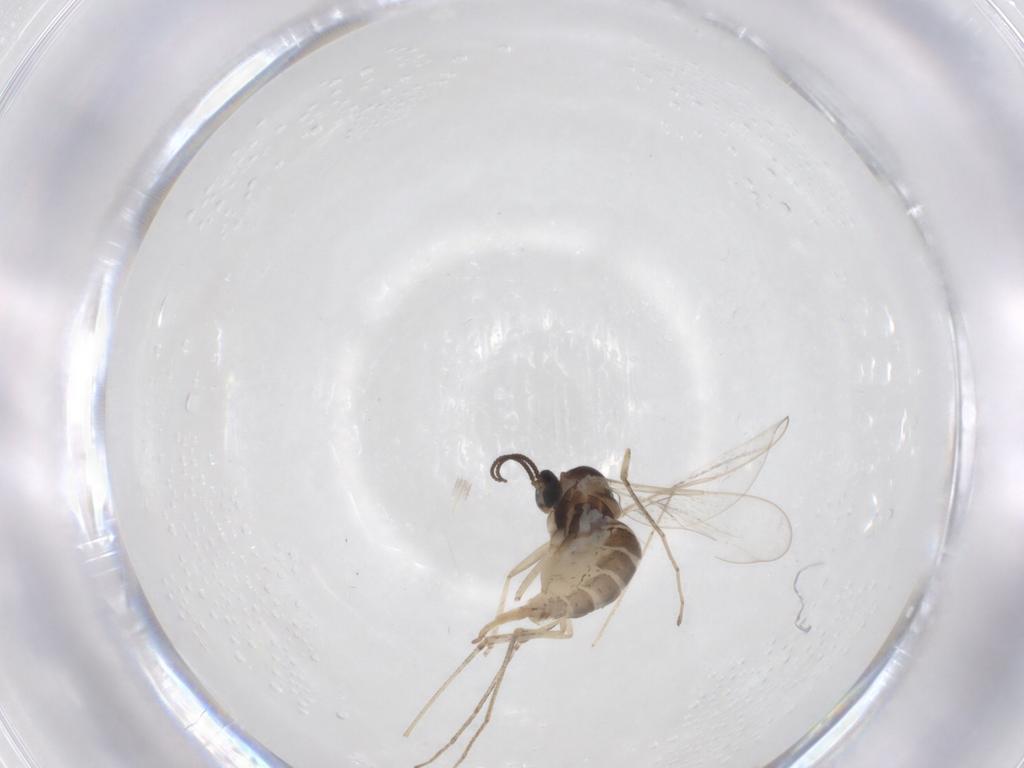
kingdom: Animalia
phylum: Arthropoda
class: Insecta
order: Diptera
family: Cecidomyiidae
